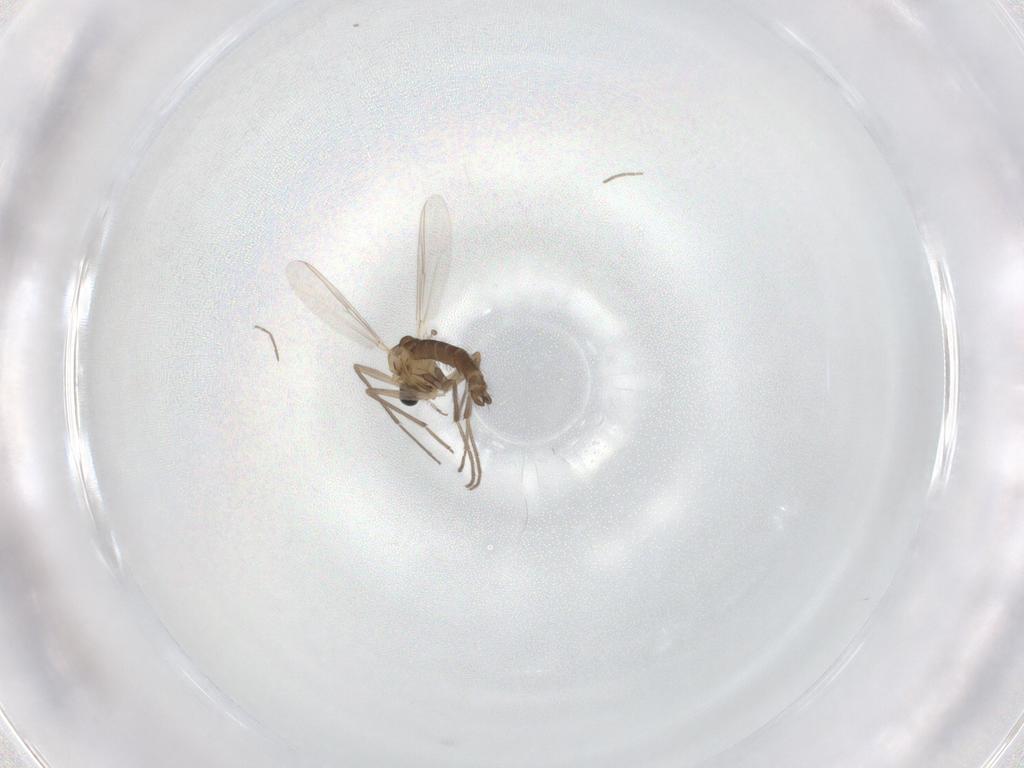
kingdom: Animalia
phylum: Arthropoda
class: Insecta
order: Diptera
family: Chironomidae
